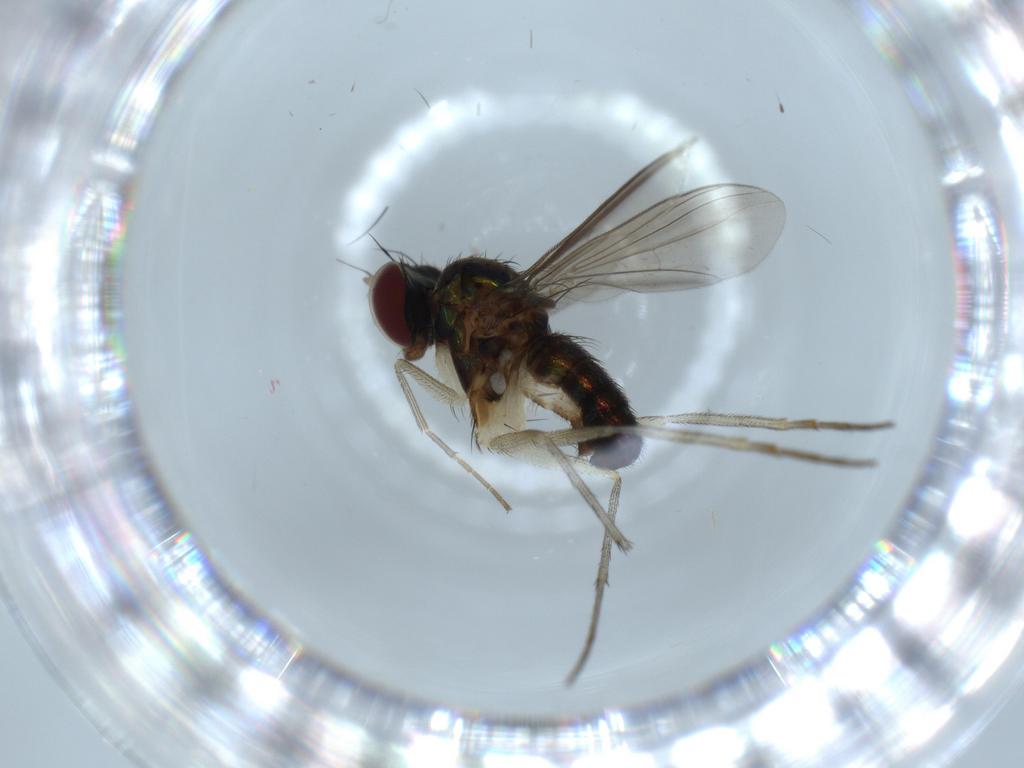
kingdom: Animalia
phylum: Arthropoda
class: Insecta
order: Diptera
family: Dolichopodidae
